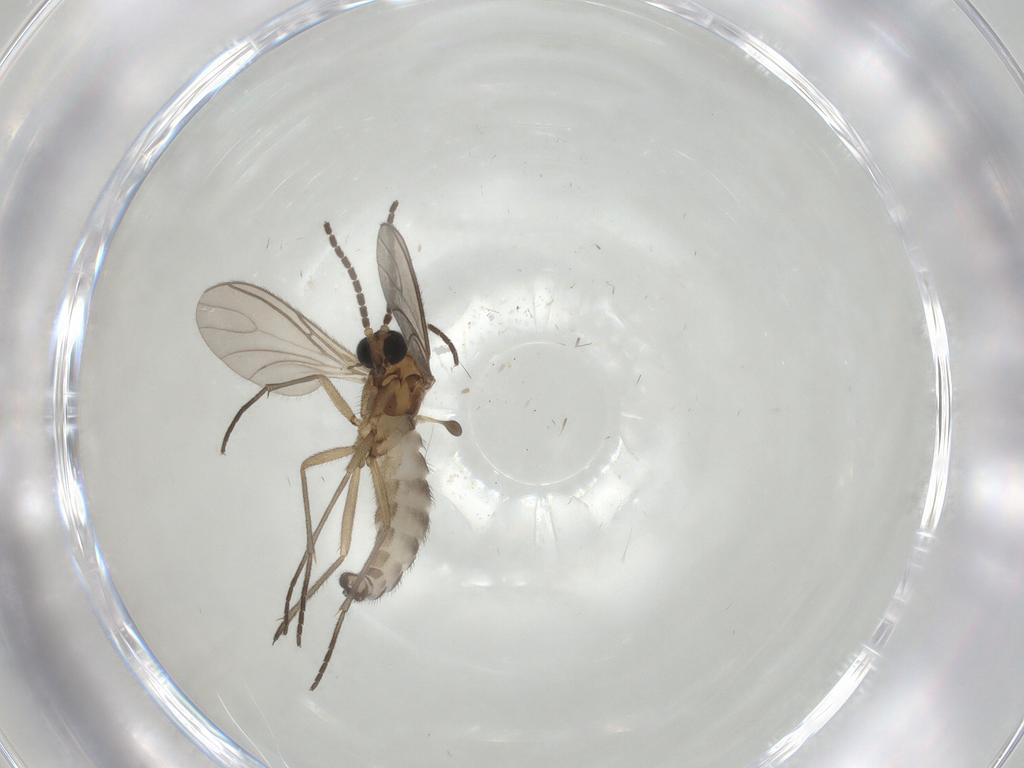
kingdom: Animalia
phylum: Arthropoda
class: Insecta
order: Diptera
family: Sciaridae
